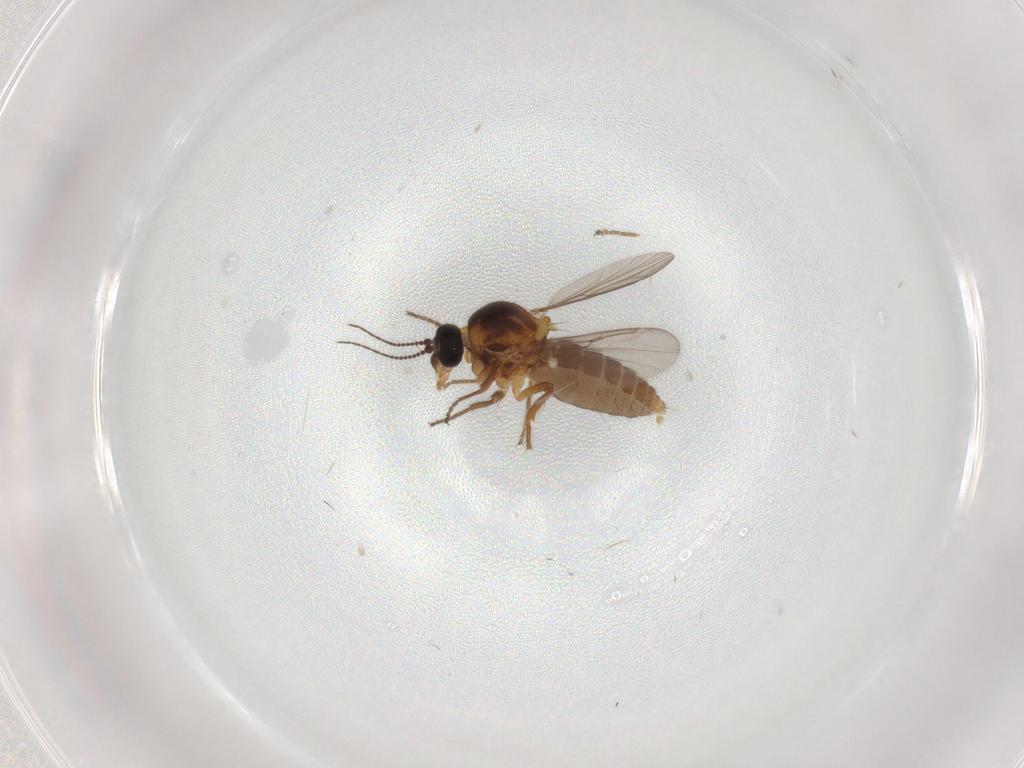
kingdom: Animalia
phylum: Arthropoda
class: Insecta
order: Diptera
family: Ceratopogonidae
